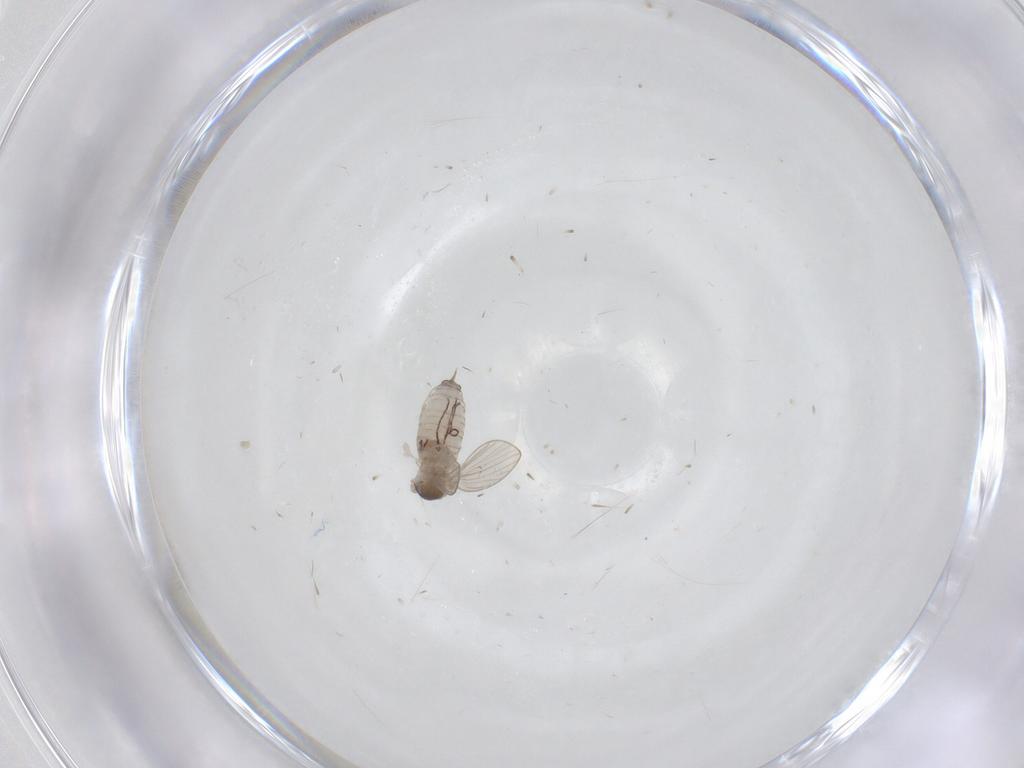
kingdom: Animalia
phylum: Arthropoda
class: Insecta
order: Diptera
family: Psychodidae
